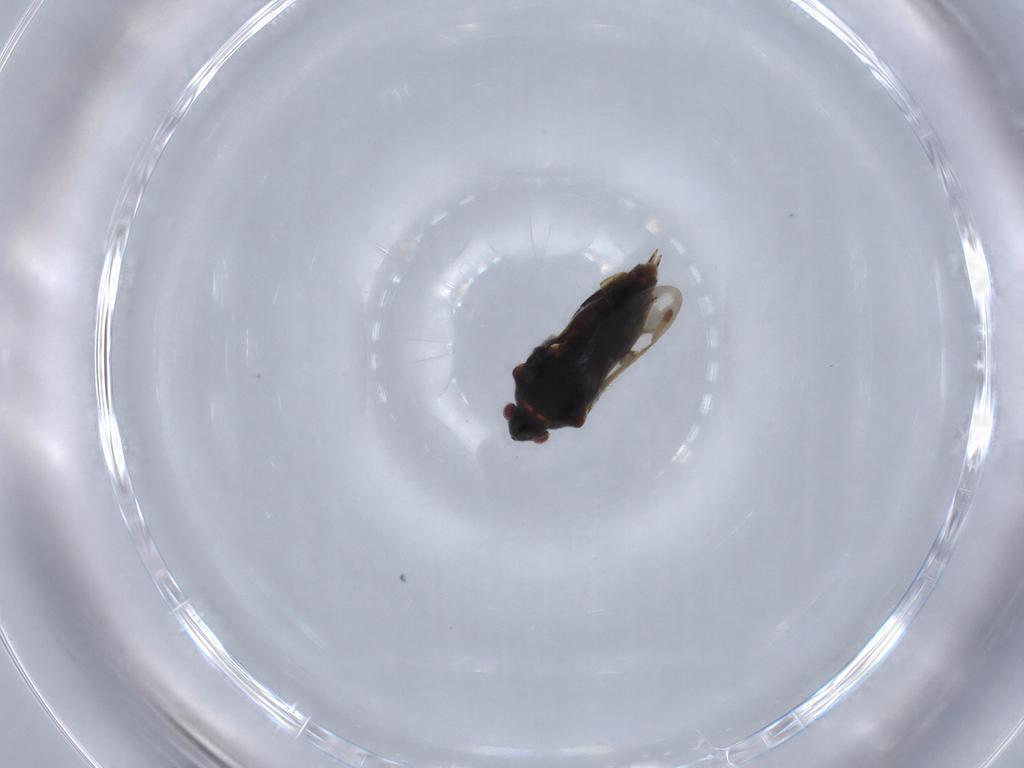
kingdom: Animalia
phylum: Arthropoda
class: Insecta
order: Hemiptera
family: Veliidae
